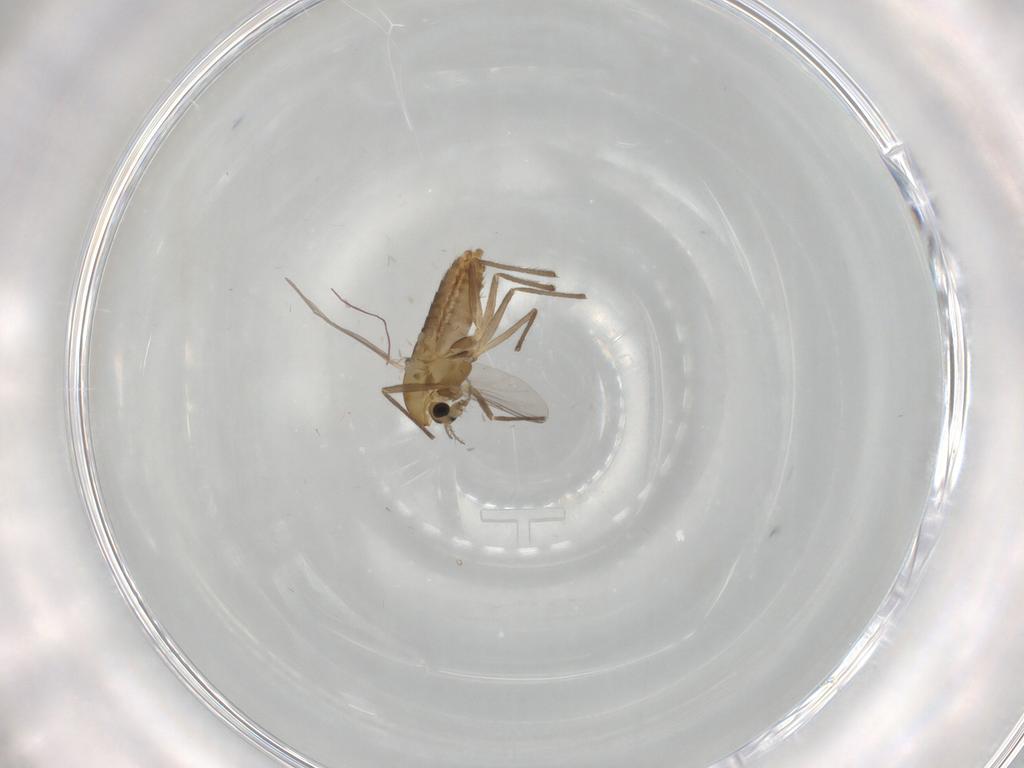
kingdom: Animalia
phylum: Arthropoda
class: Insecta
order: Diptera
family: Chironomidae
